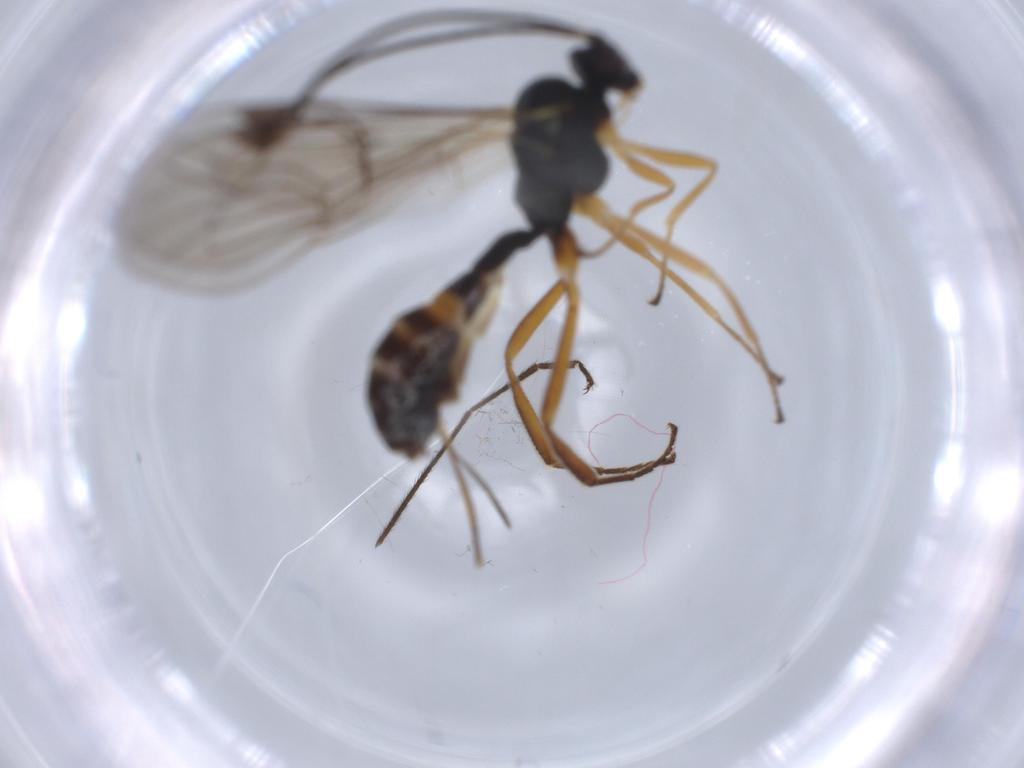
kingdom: Animalia
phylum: Arthropoda
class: Insecta
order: Hymenoptera
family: Ichneumonidae
